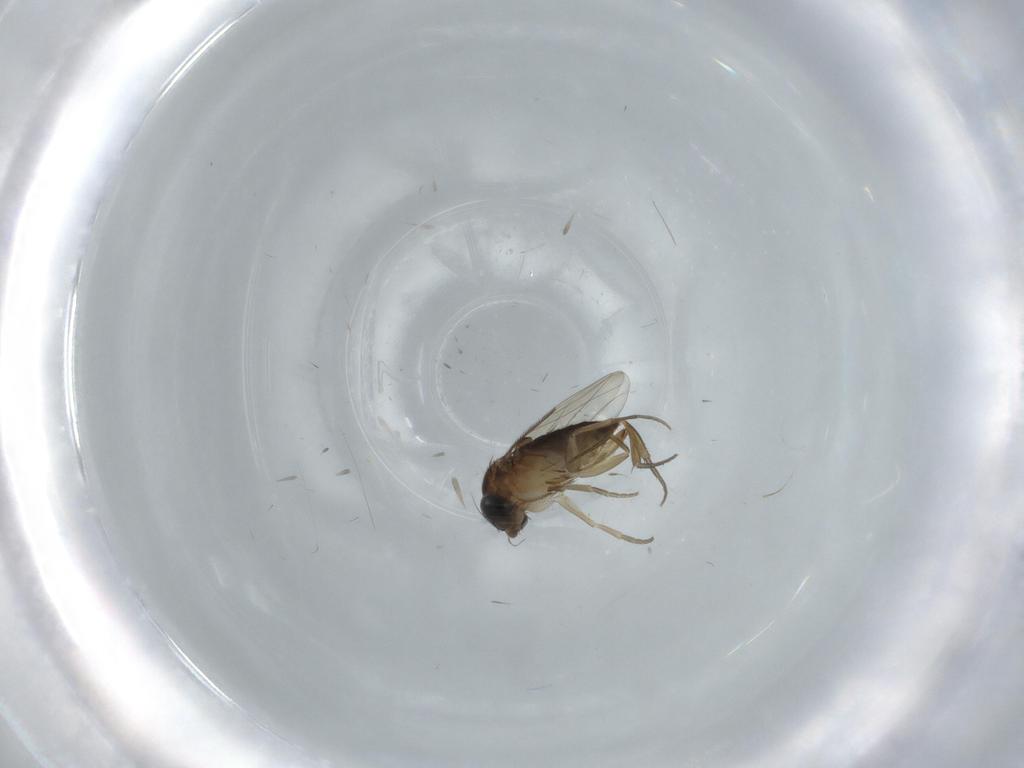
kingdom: Animalia
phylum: Arthropoda
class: Insecta
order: Diptera
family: Phoridae
